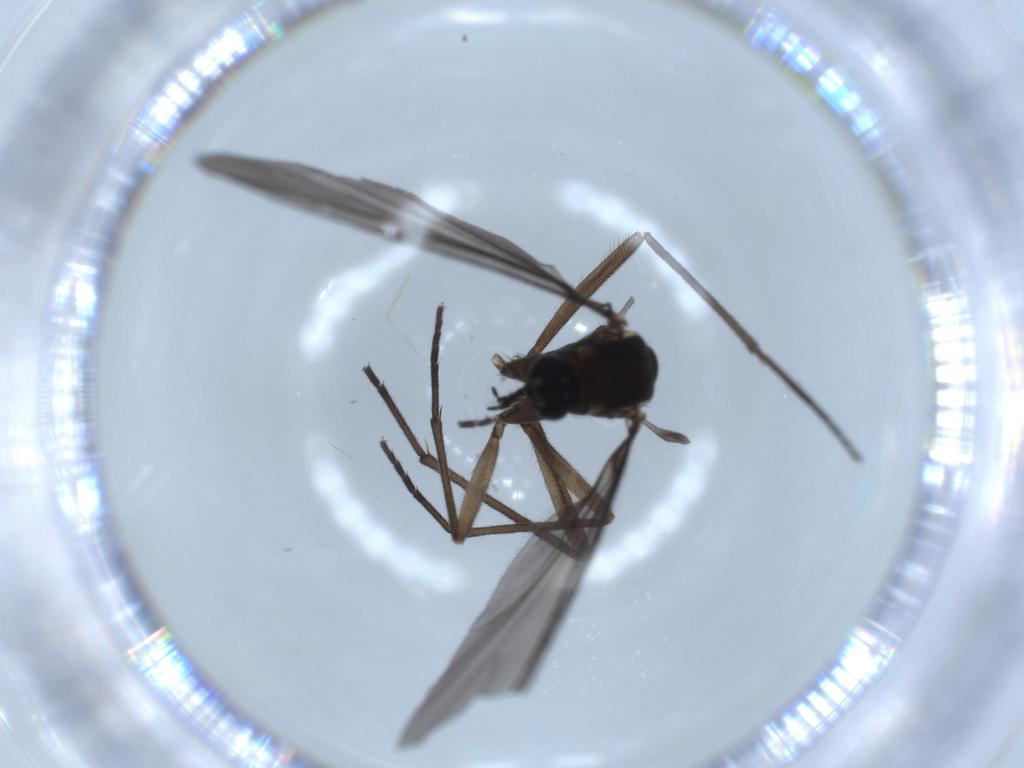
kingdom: Animalia
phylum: Arthropoda
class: Insecta
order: Diptera
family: Sciaridae
